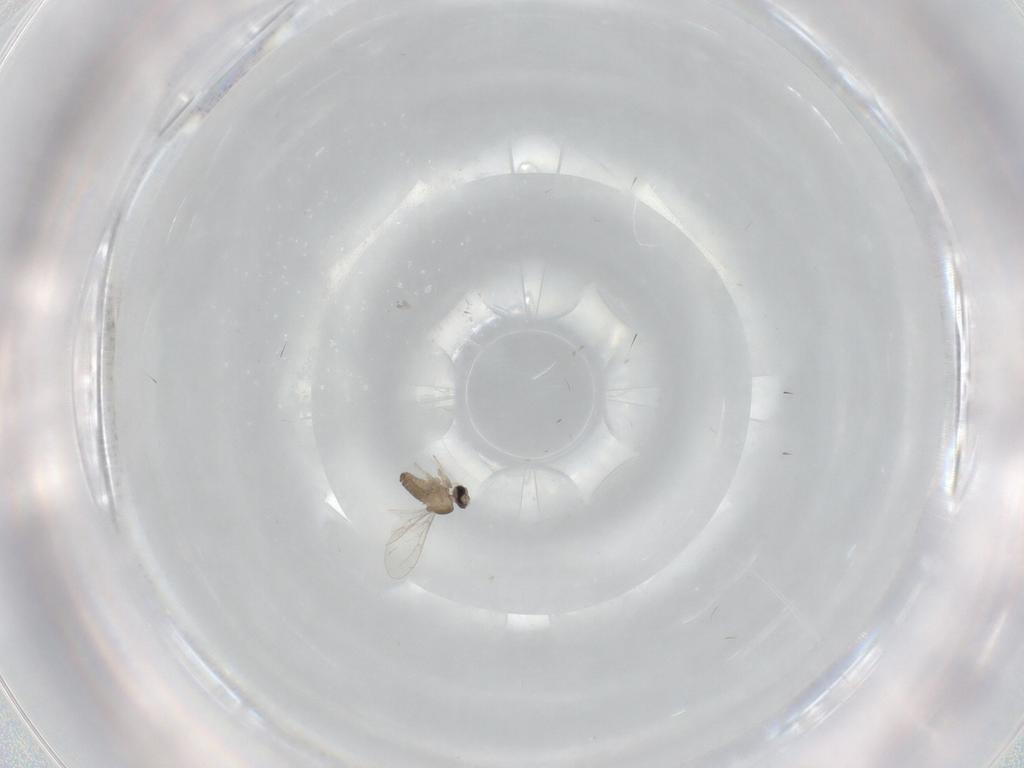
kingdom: Animalia
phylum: Arthropoda
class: Insecta
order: Diptera
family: Cecidomyiidae
